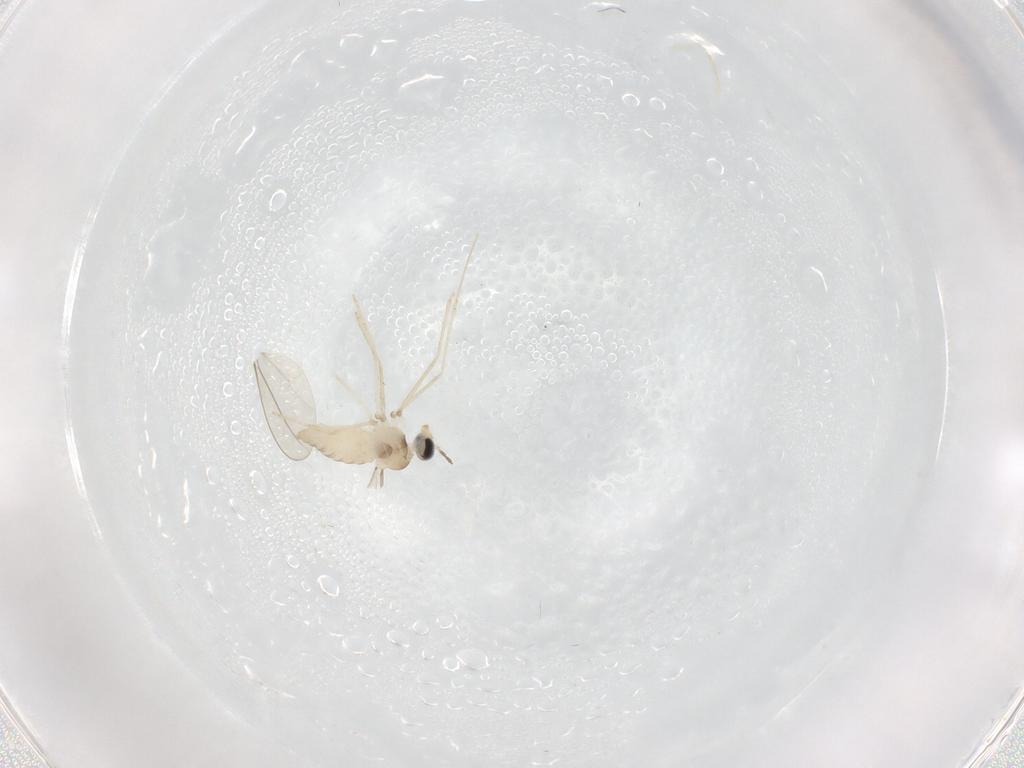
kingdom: Animalia
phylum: Arthropoda
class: Insecta
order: Diptera
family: Cecidomyiidae
